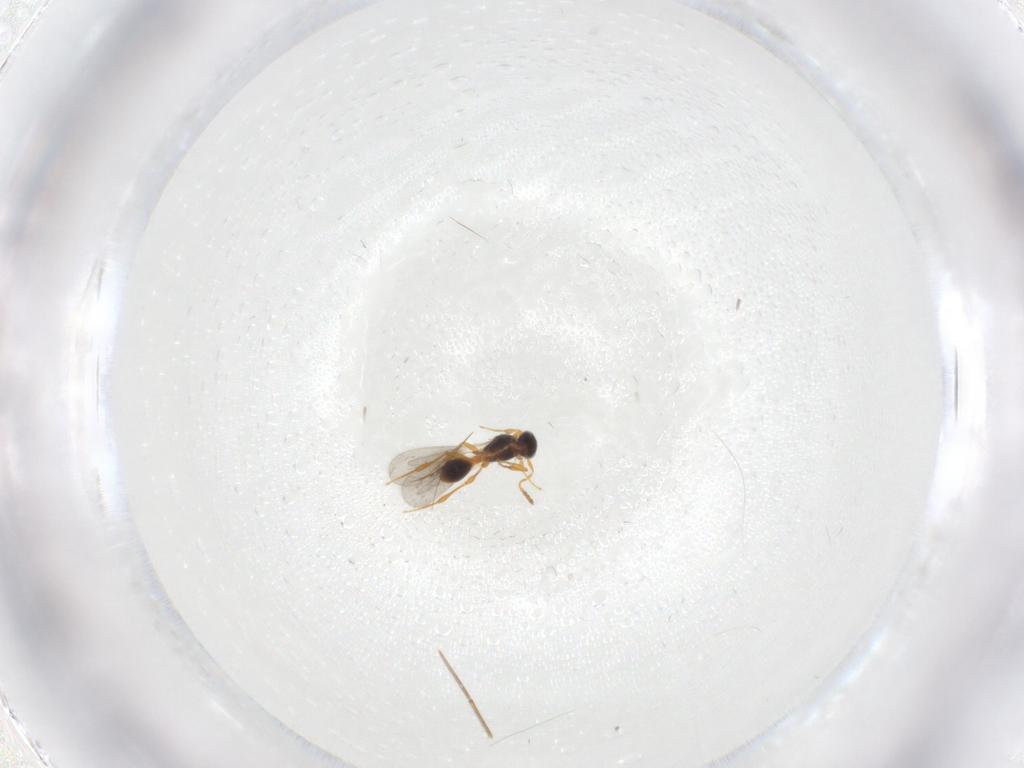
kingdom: Animalia
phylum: Arthropoda
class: Insecta
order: Hymenoptera
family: Platygastridae
